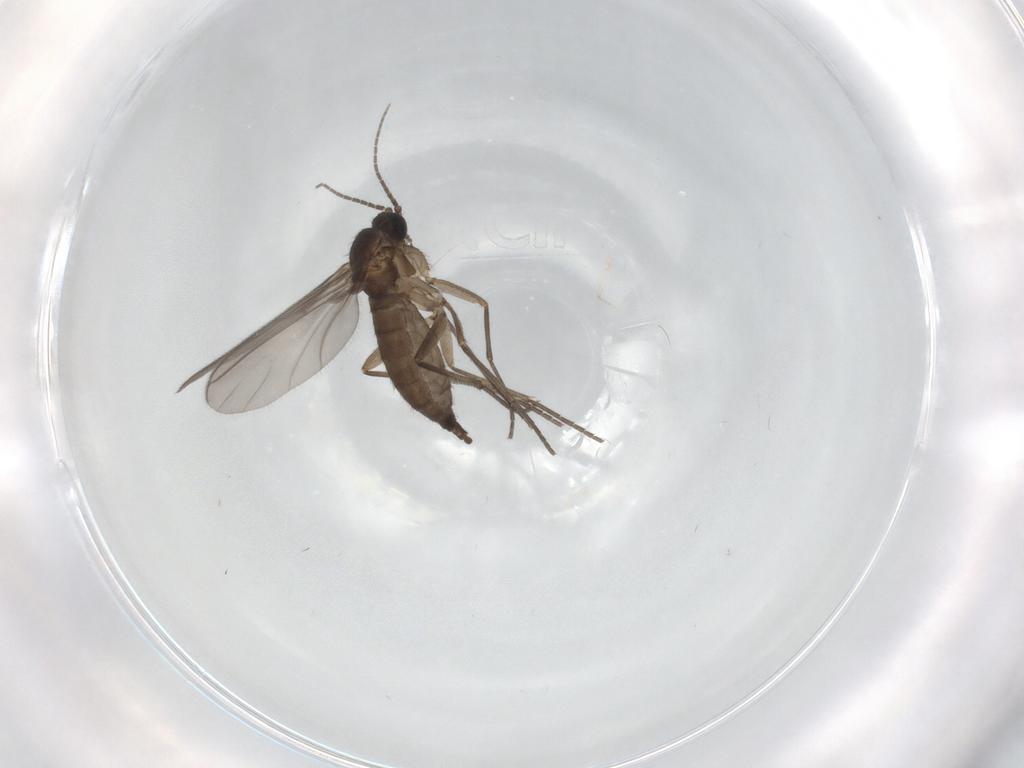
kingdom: Animalia
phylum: Arthropoda
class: Insecta
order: Diptera
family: Sciaridae
